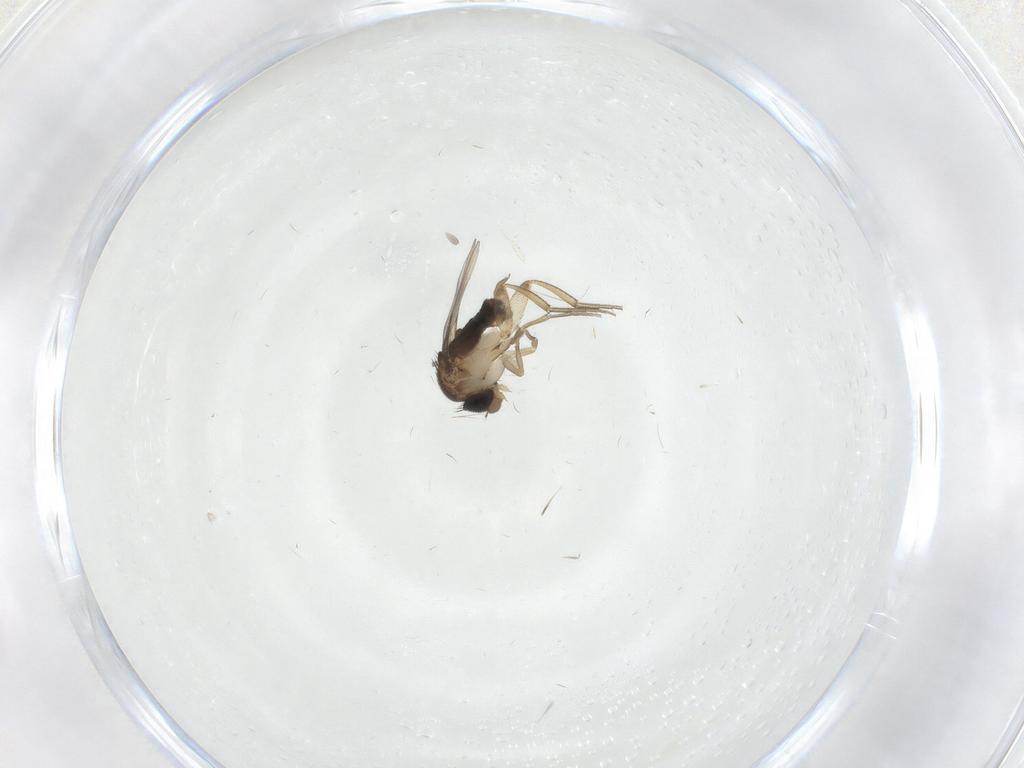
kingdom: Animalia
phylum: Arthropoda
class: Insecta
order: Diptera
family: Phoridae
